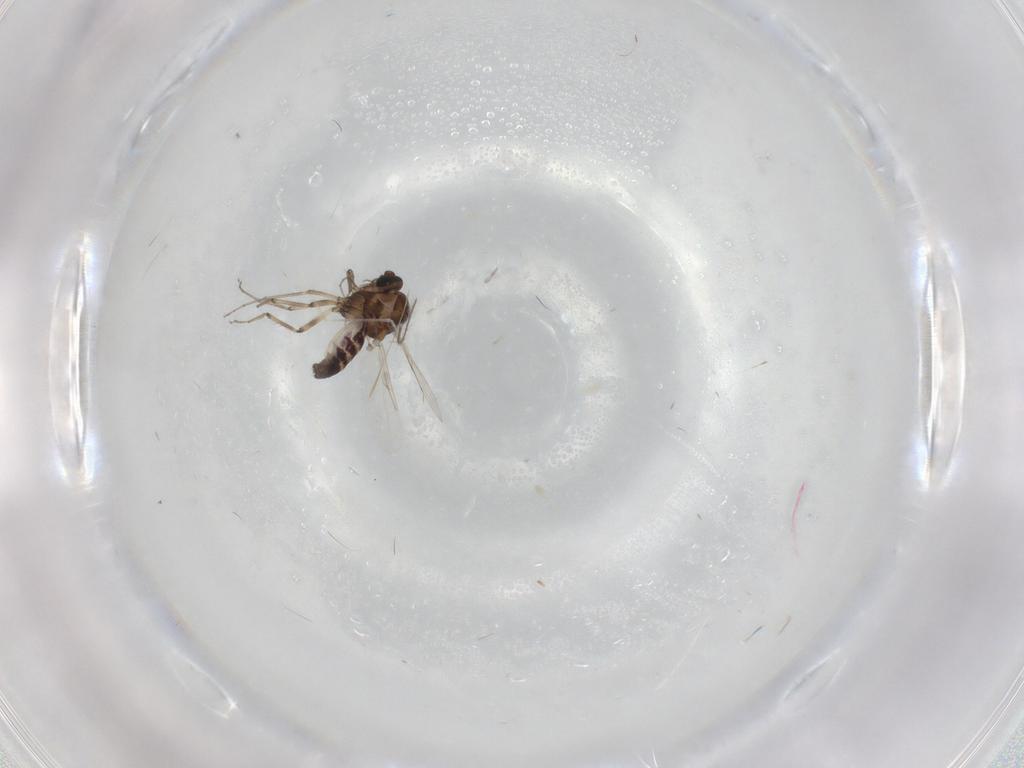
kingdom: Animalia
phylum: Arthropoda
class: Insecta
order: Diptera
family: Ceratopogonidae
